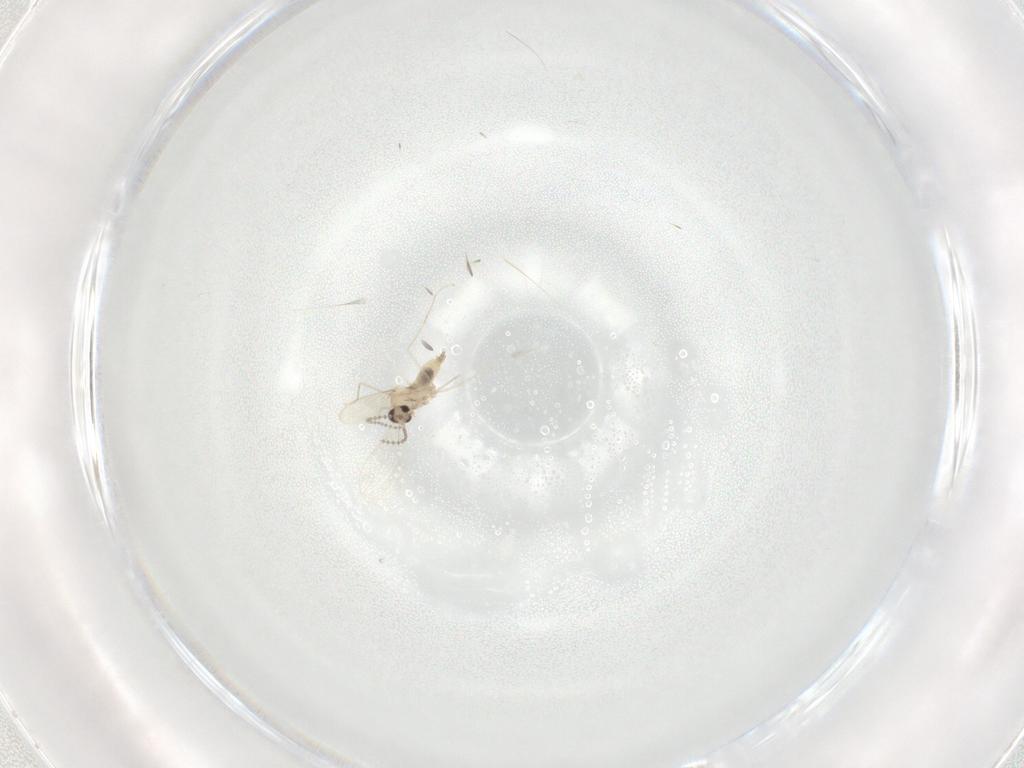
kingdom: Animalia
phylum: Arthropoda
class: Insecta
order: Diptera
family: Cecidomyiidae
